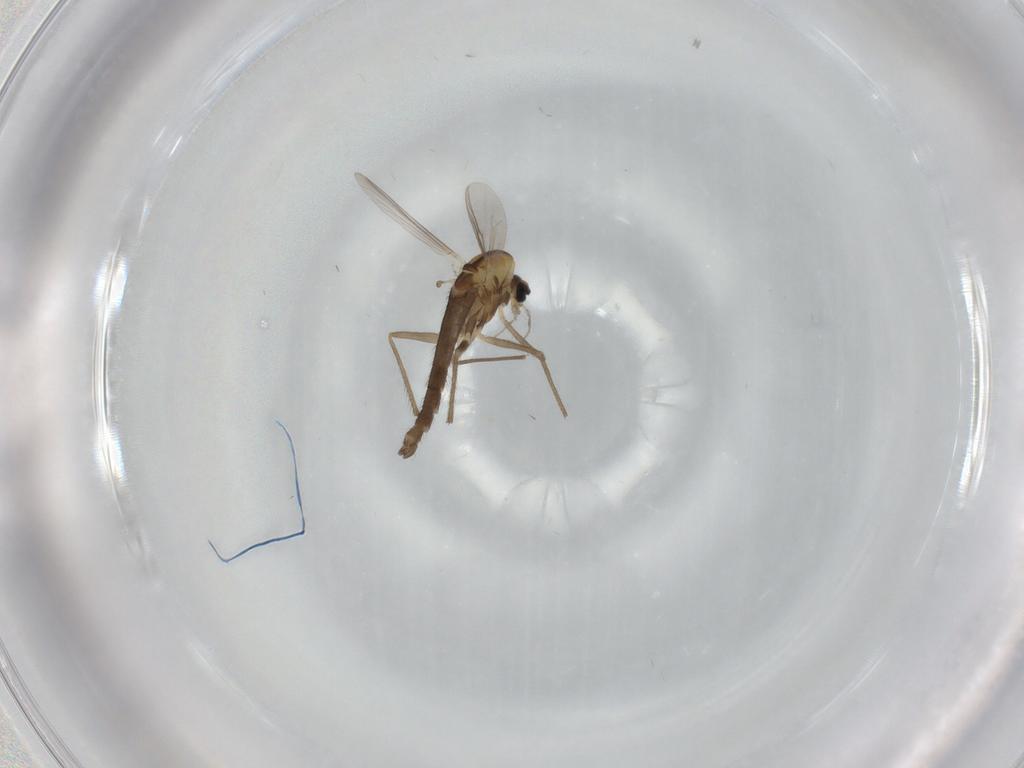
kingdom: Animalia
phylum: Arthropoda
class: Insecta
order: Diptera
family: Chironomidae
